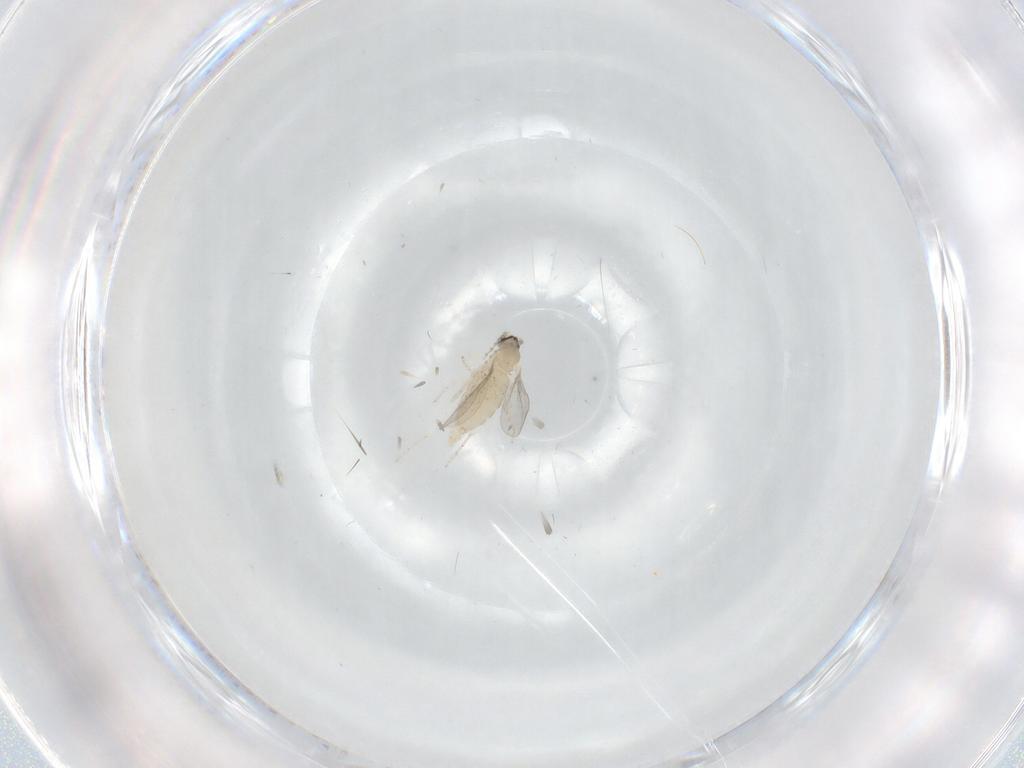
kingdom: Animalia
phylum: Arthropoda
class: Insecta
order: Diptera
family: Cecidomyiidae
